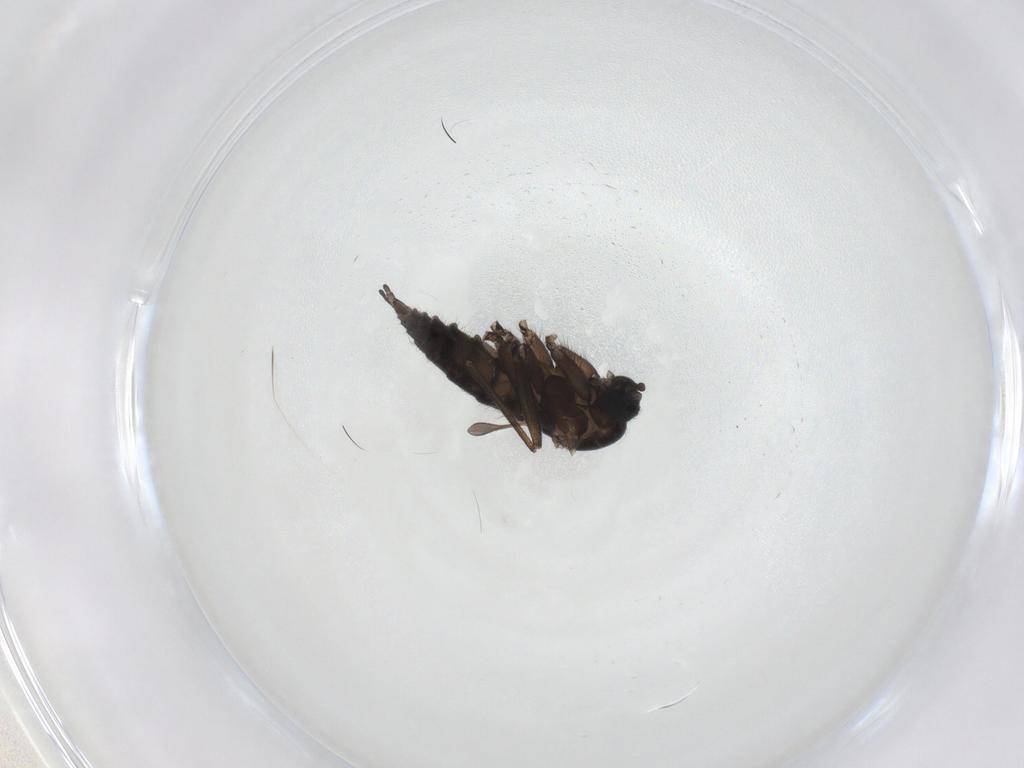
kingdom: Animalia
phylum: Arthropoda
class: Insecta
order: Diptera
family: Sciaridae
